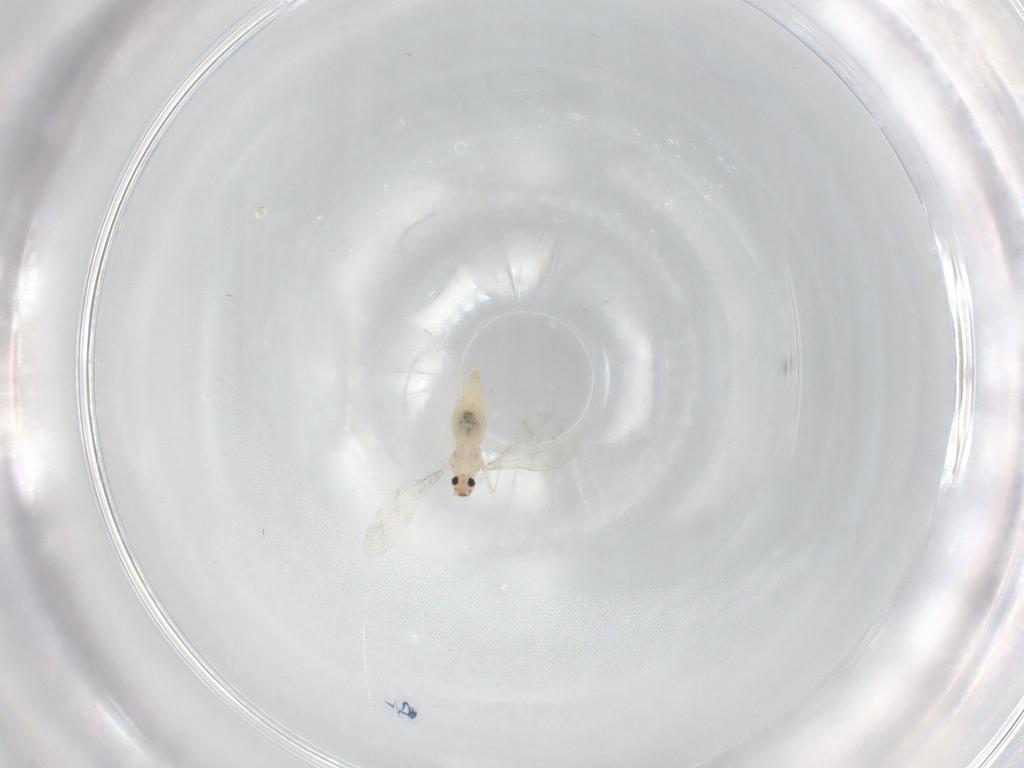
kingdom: Animalia
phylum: Arthropoda
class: Insecta
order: Diptera
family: Cecidomyiidae
